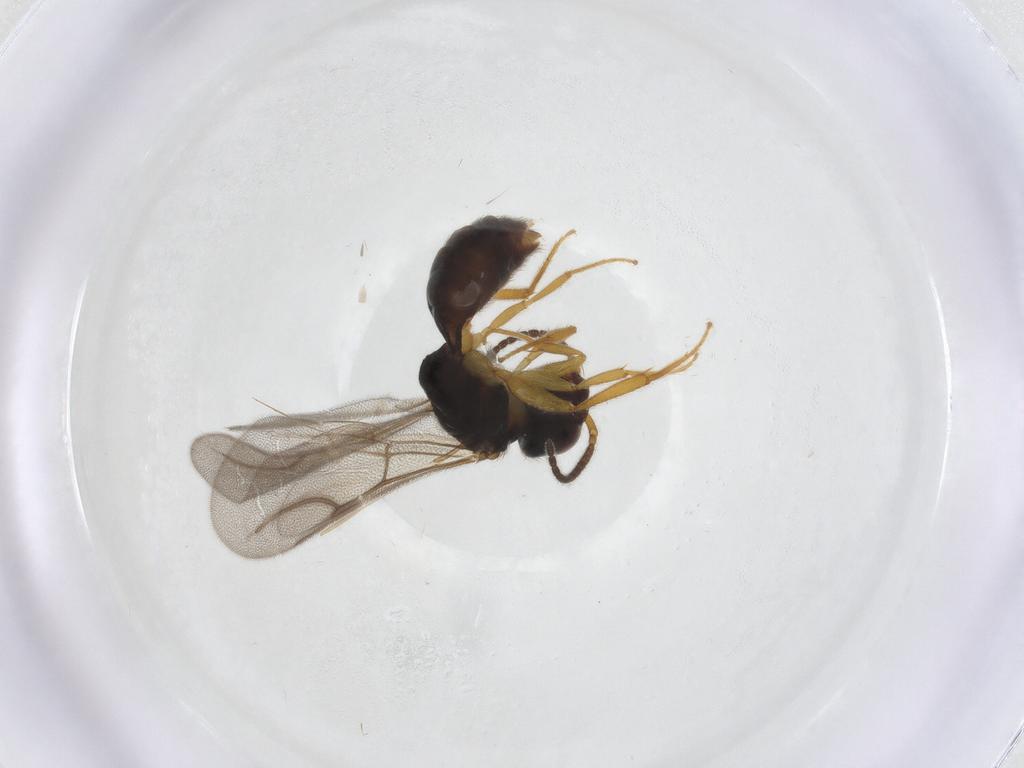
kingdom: Animalia
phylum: Arthropoda
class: Insecta
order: Hymenoptera
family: Bethylidae
